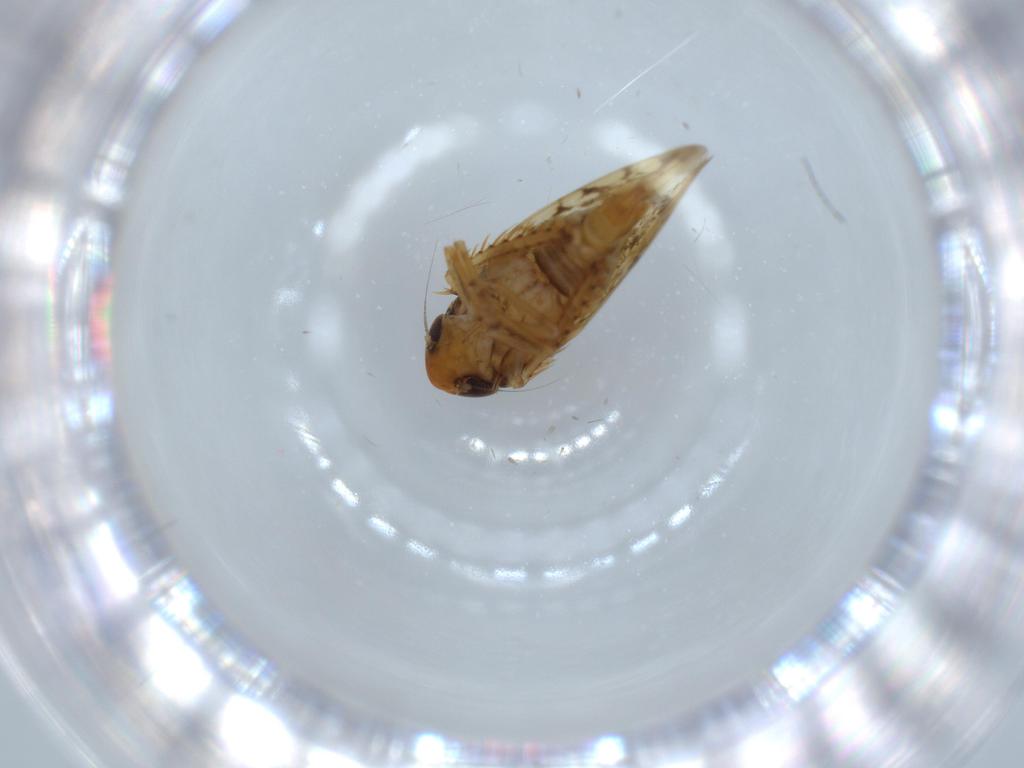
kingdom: Animalia
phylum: Arthropoda
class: Insecta
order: Hemiptera
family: Cicadellidae
